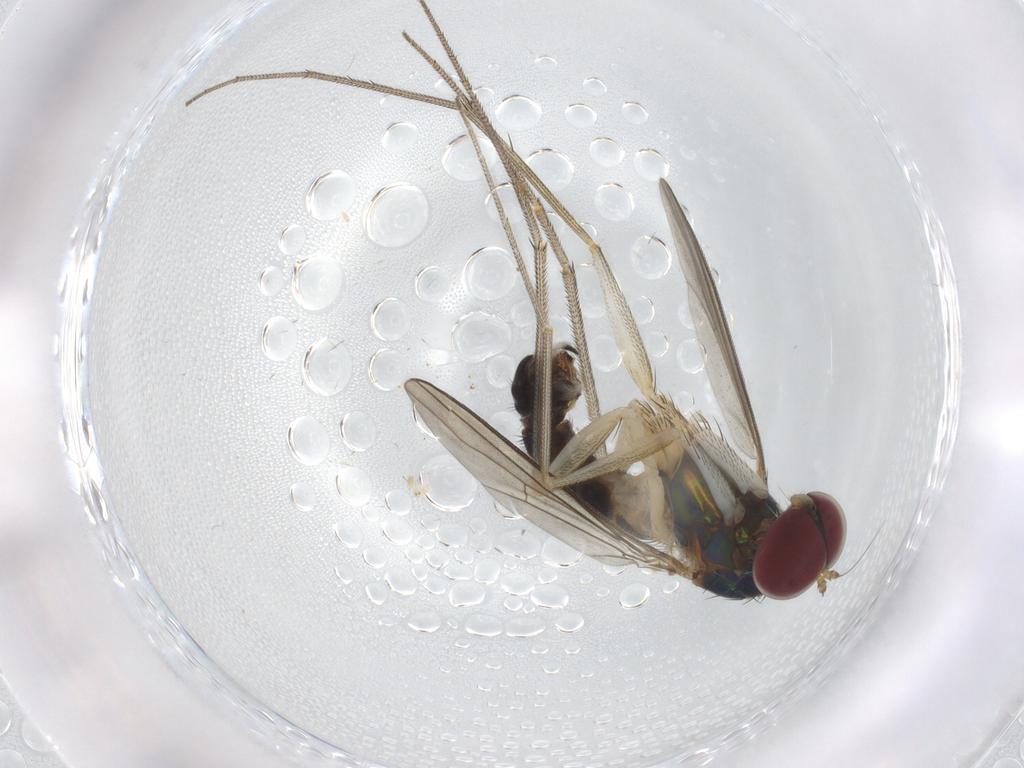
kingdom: Animalia
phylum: Arthropoda
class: Insecta
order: Diptera
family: Dolichopodidae
